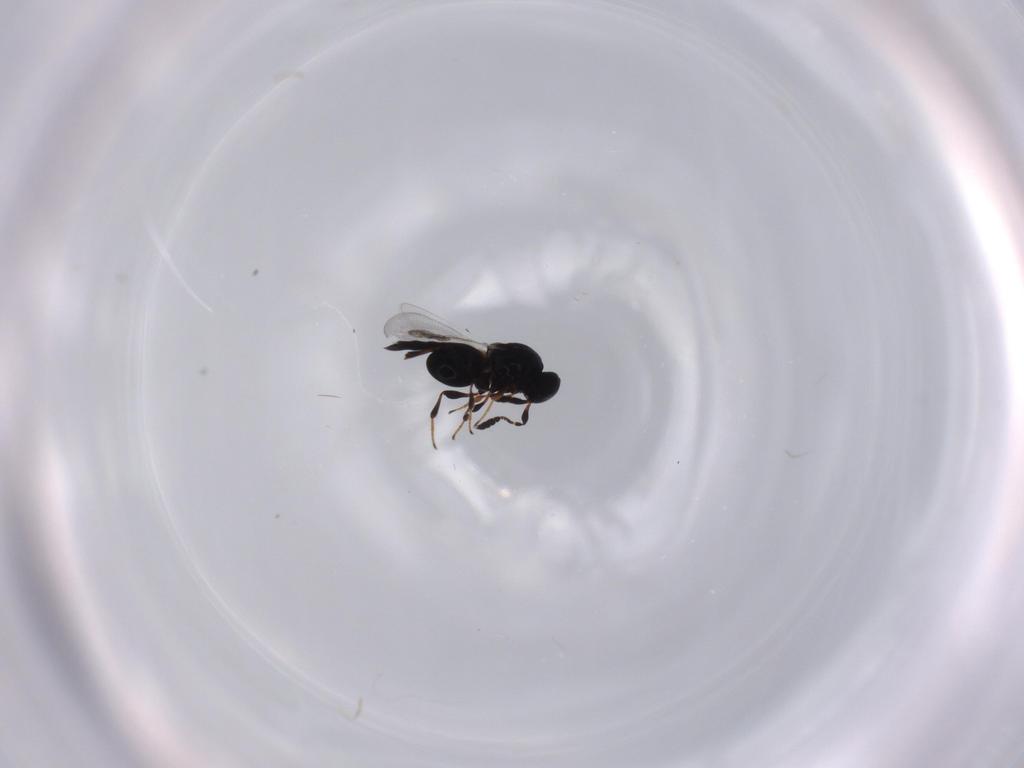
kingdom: Animalia
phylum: Arthropoda
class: Insecta
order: Hymenoptera
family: Platygastridae
